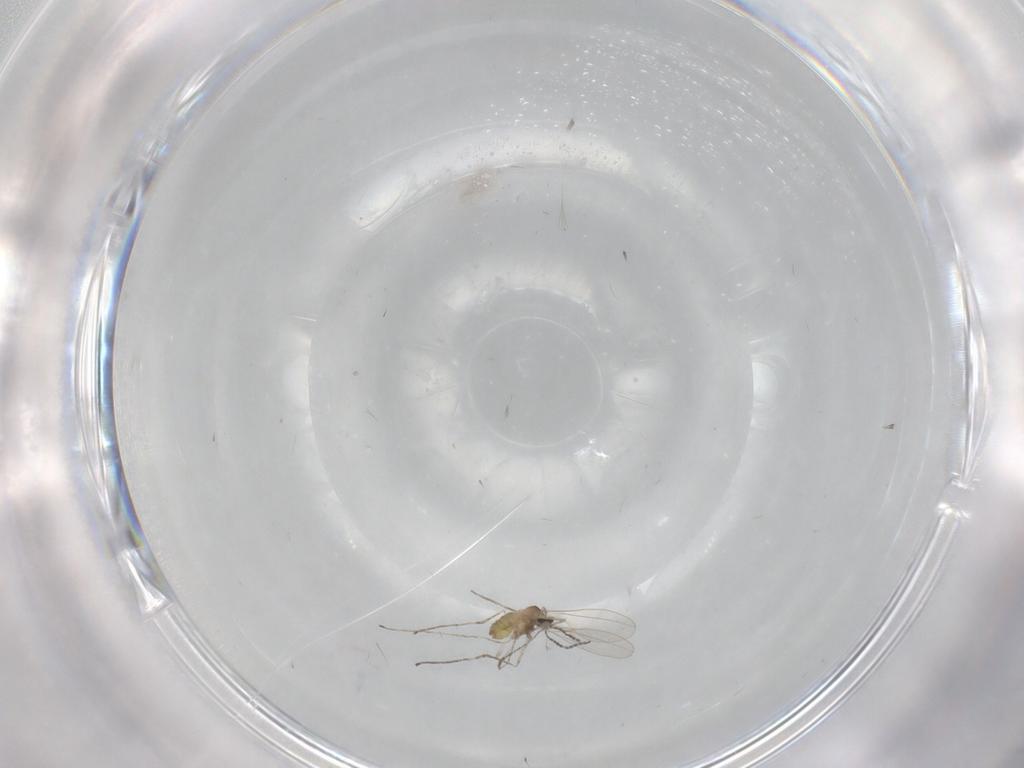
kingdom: Animalia
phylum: Arthropoda
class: Insecta
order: Diptera
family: Cecidomyiidae
